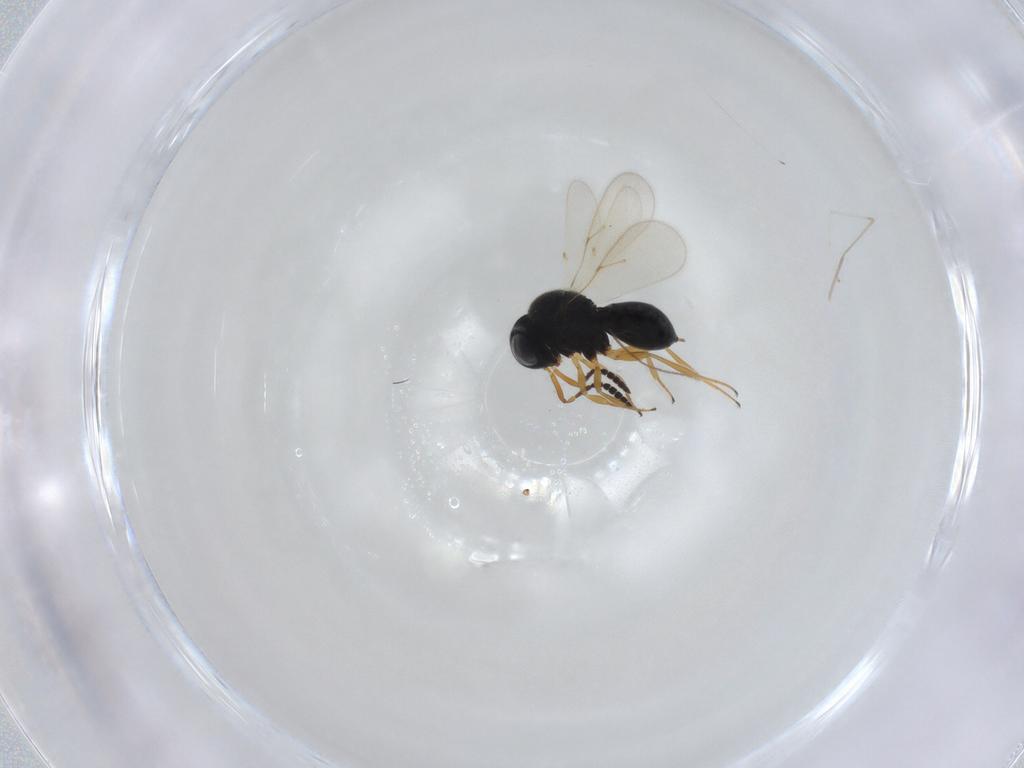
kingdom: Animalia
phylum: Arthropoda
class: Insecta
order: Hymenoptera
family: Scelionidae
